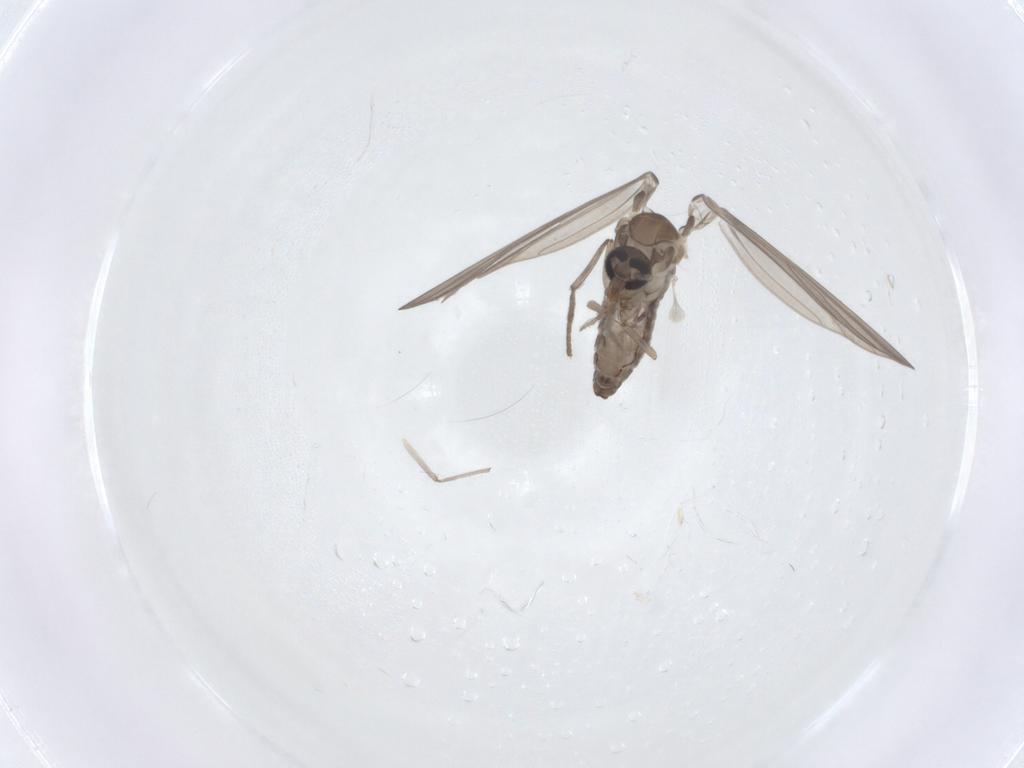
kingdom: Animalia
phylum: Arthropoda
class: Insecta
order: Diptera
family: Psychodidae
